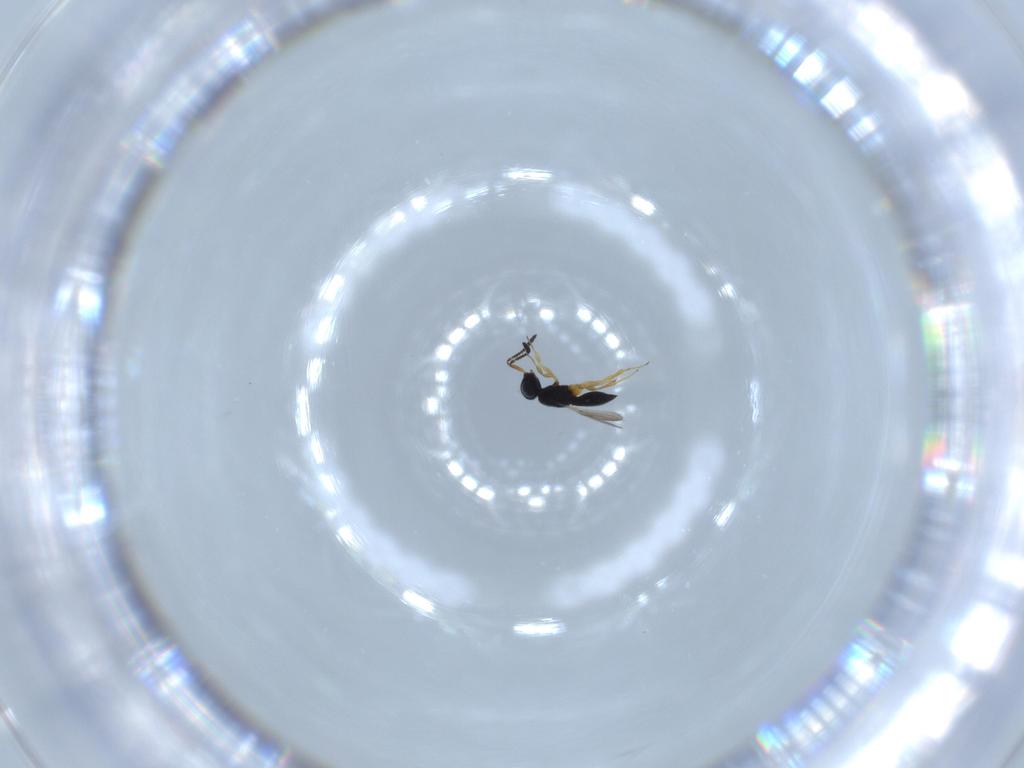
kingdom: Animalia
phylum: Arthropoda
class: Insecta
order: Hymenoptera
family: Scelionidae
